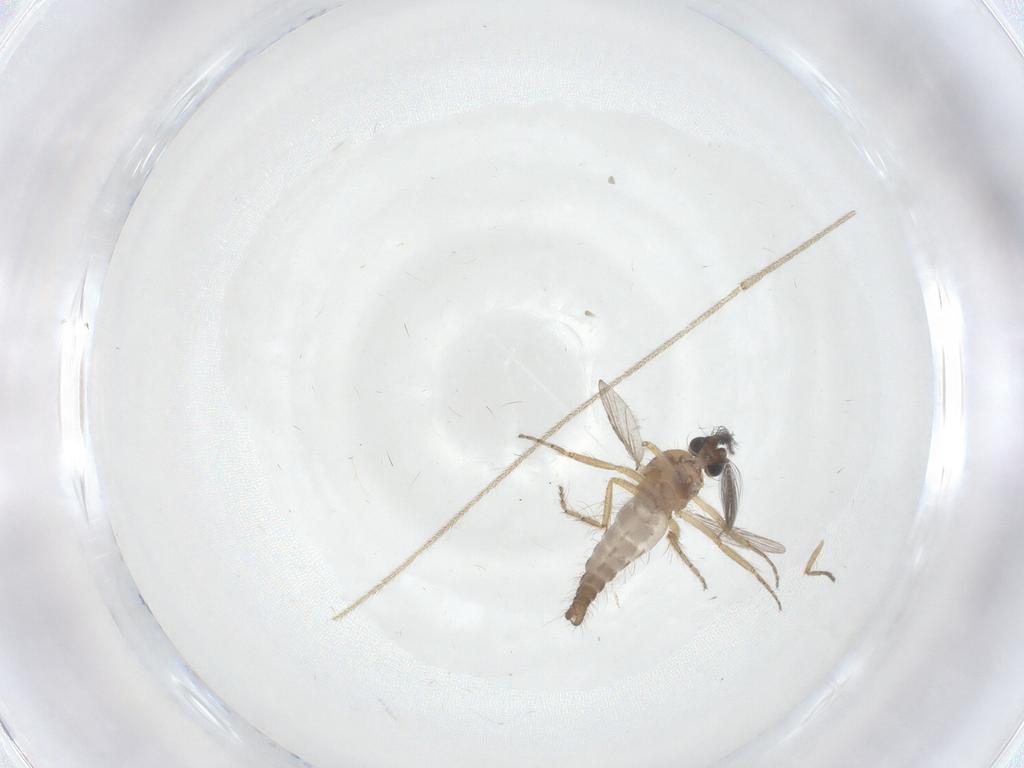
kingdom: Animalia
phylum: Arthropoda
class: Insecta
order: Diptera
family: Ceratopogonidae
